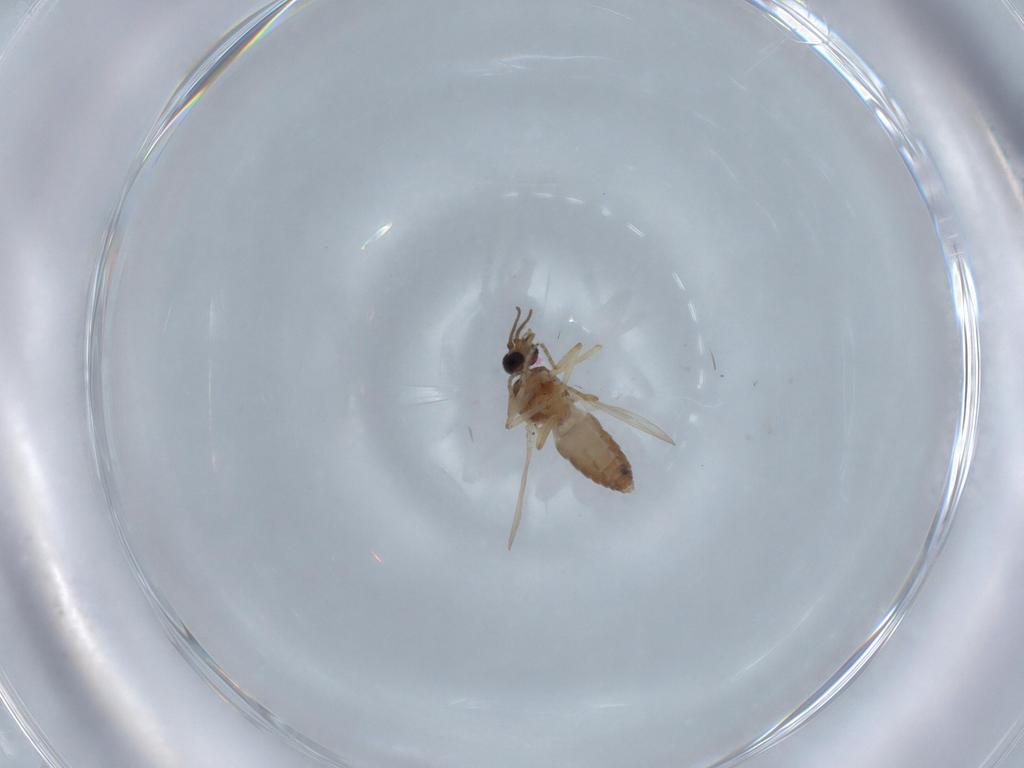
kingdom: Animalia
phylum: Arthropoda
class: Insecta
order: Diptera
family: Ceratopogonidae
